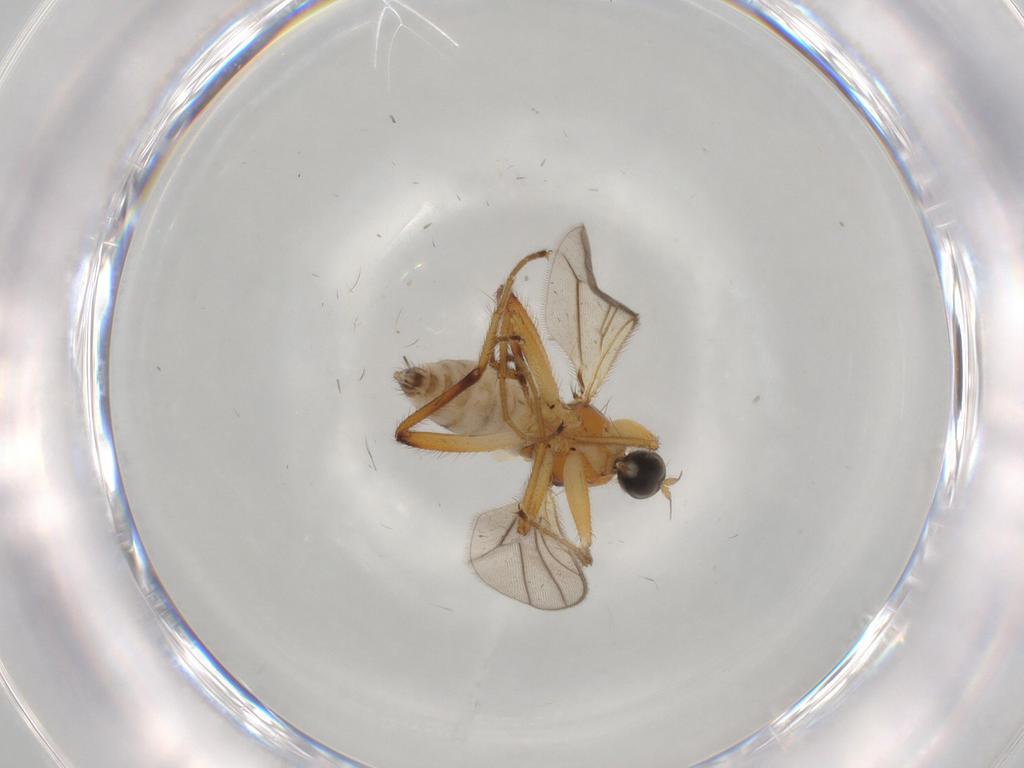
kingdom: Animalia
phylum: Arthropoda
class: Insecta
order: Diptera
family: Hybotidae
